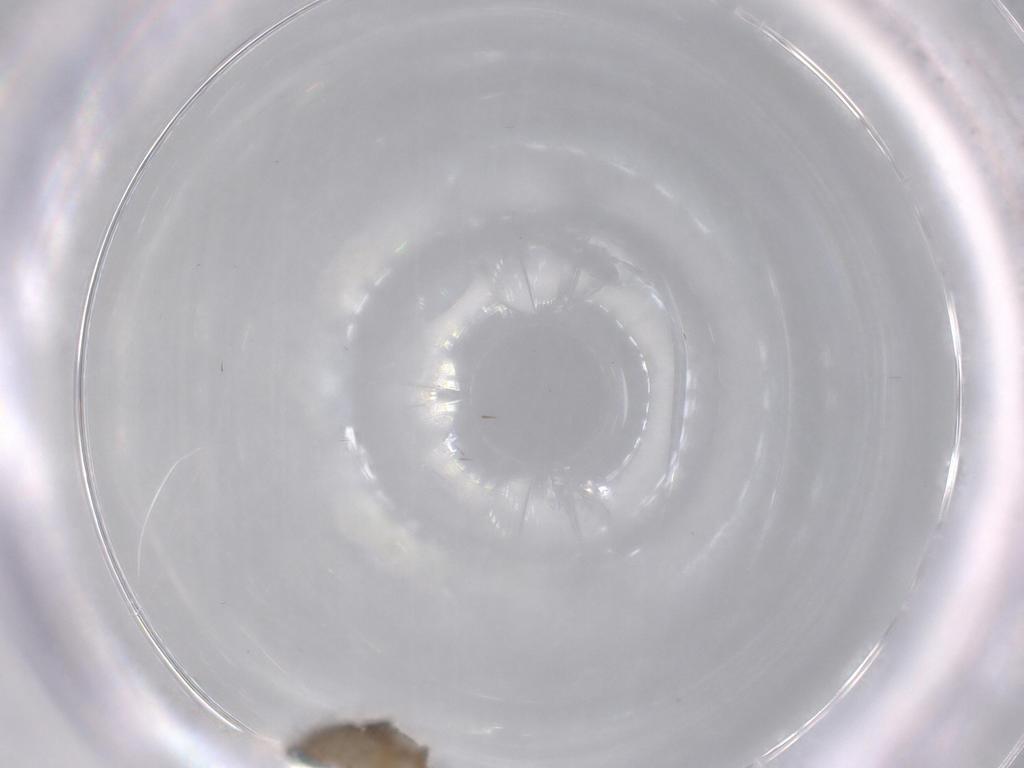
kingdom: Animalia
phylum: Arthropoda
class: Insecta
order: Diptera
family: Ceratopogonidae
